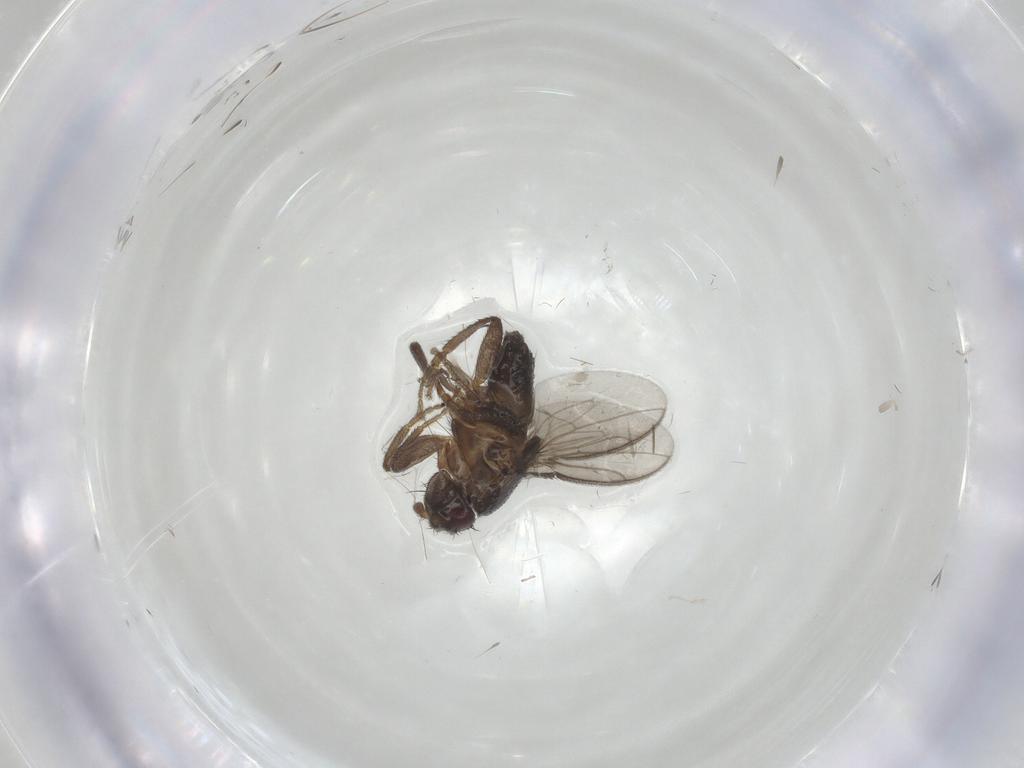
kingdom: Animalia
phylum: Arthropoda
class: Insecta
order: Diptera
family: Sphaeroceridae
